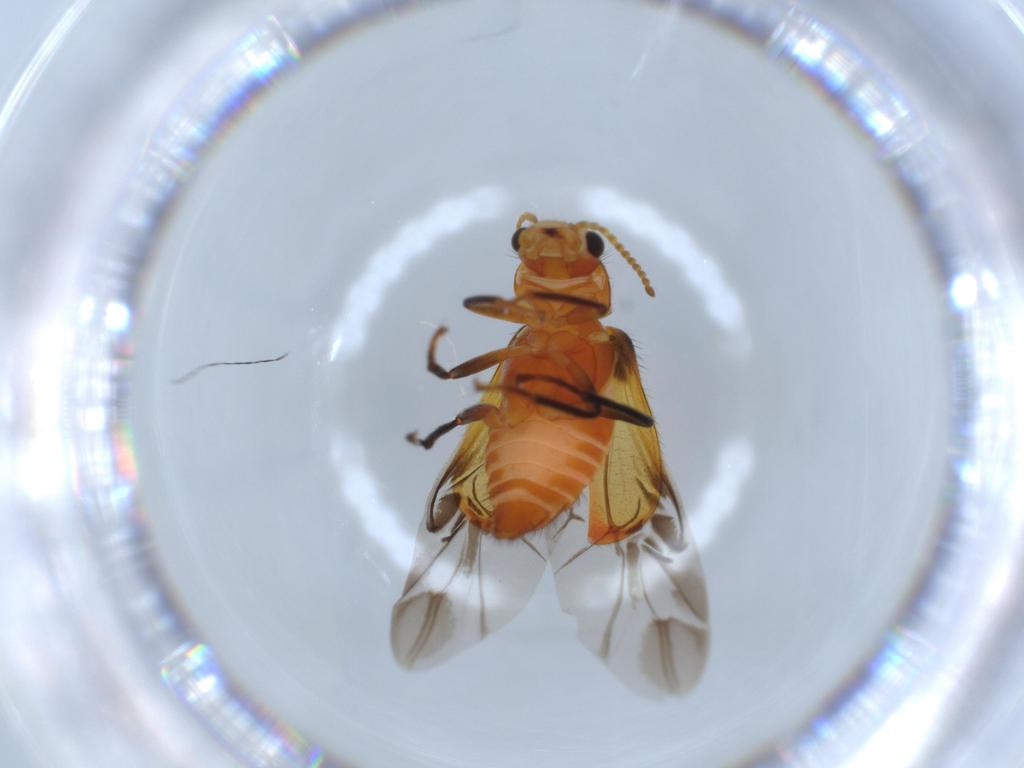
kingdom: Animalia
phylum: Arthropoda
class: Insecta
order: Coleoptera
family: Melyridae
